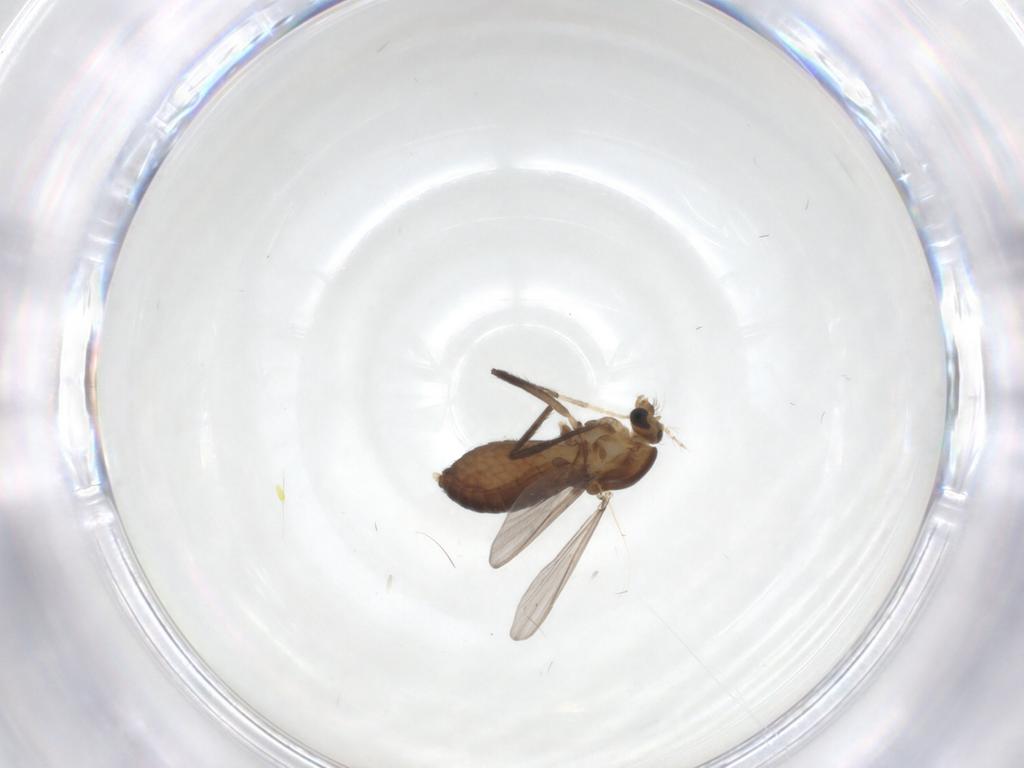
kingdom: Animalia
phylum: Arthropoda
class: Insecta
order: Diptera
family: Chironomidae
